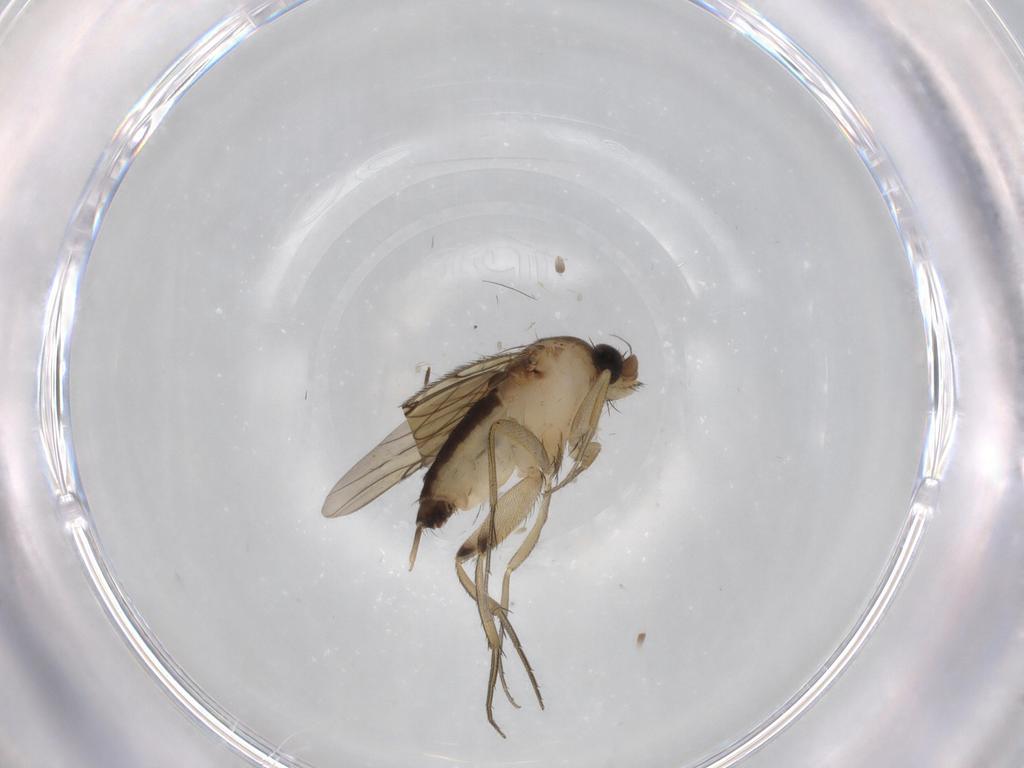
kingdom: Animalia
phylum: Arthropoda
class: Insecta
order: Diptera
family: Phoridae
